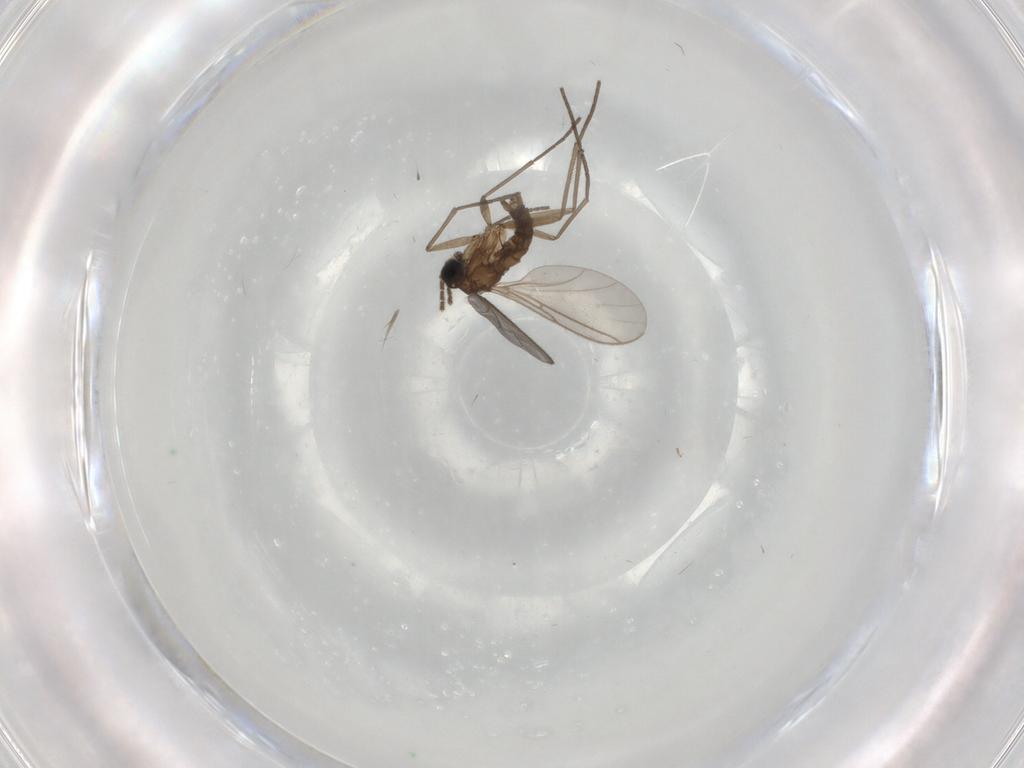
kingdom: Animalia
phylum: Arthropoda
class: Insecta
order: Diptera
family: Sciaridae
